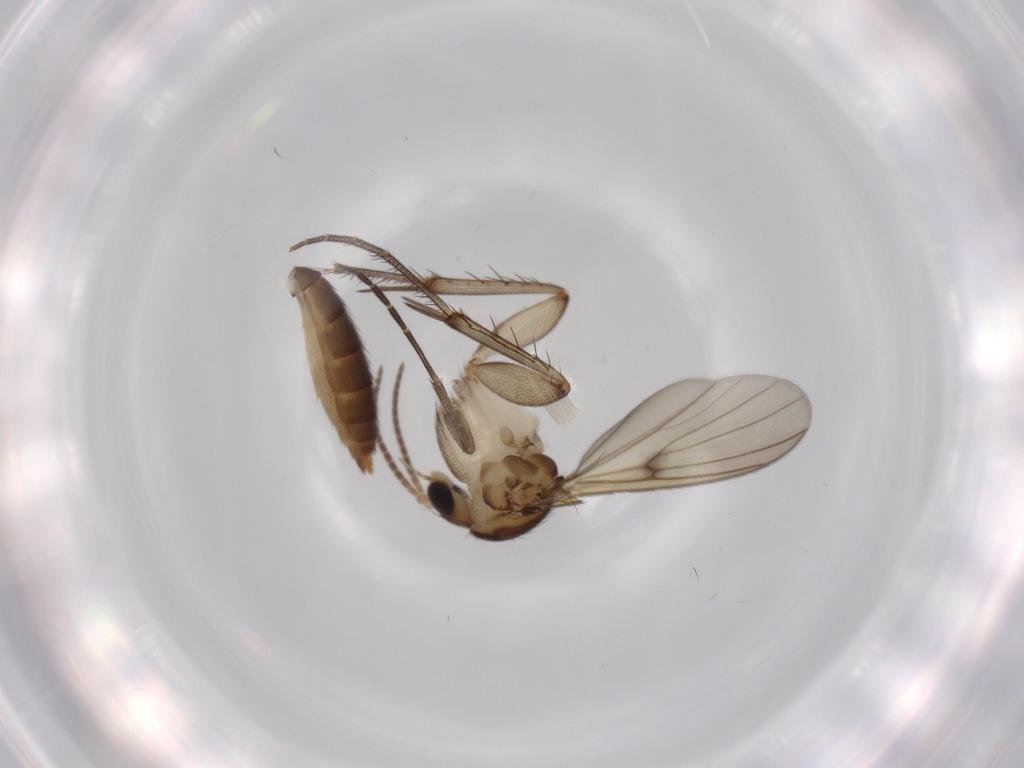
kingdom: Animalia
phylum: Arthropoda
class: Insecta
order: Diptera
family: Mycetophilidae
